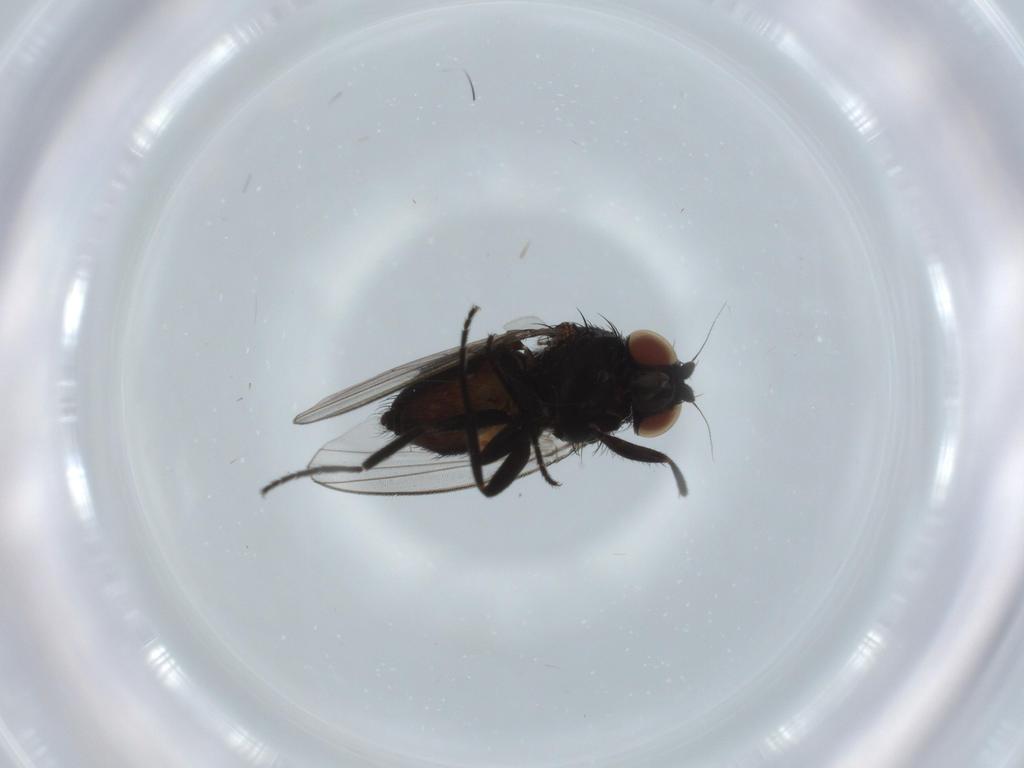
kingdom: Animalia
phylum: Arthropoda
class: Insecta
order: Diptera
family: Milichiidae
